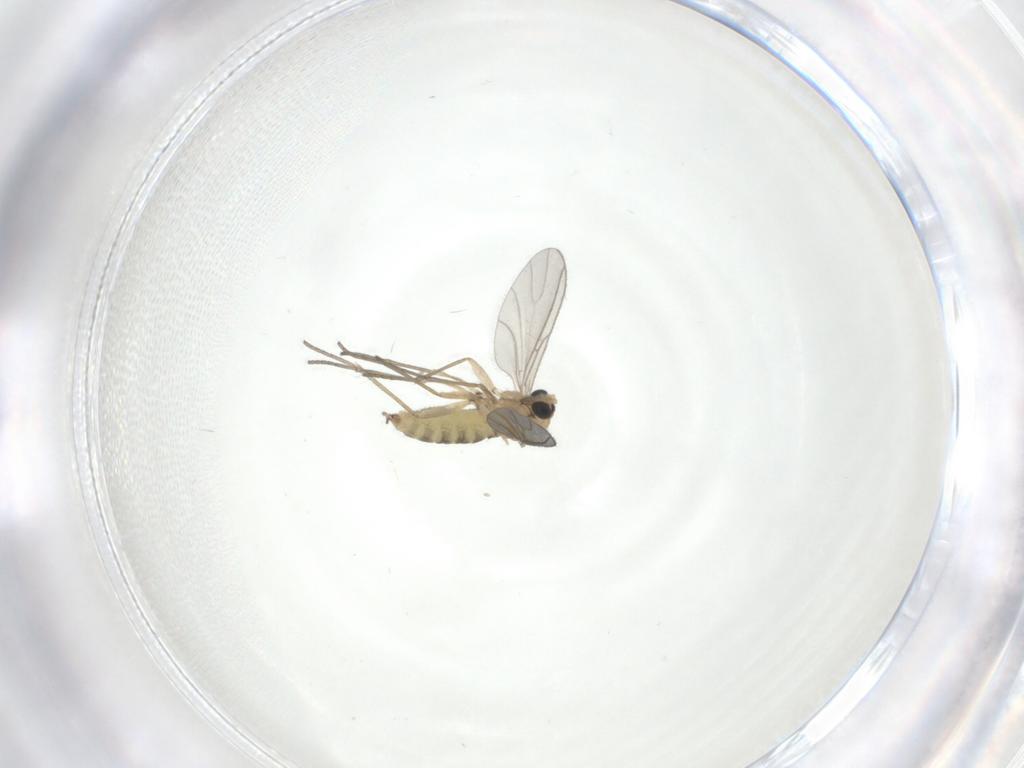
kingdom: Animalia
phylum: Arthropoda
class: Insecta
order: Diptera
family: Sciaridae
